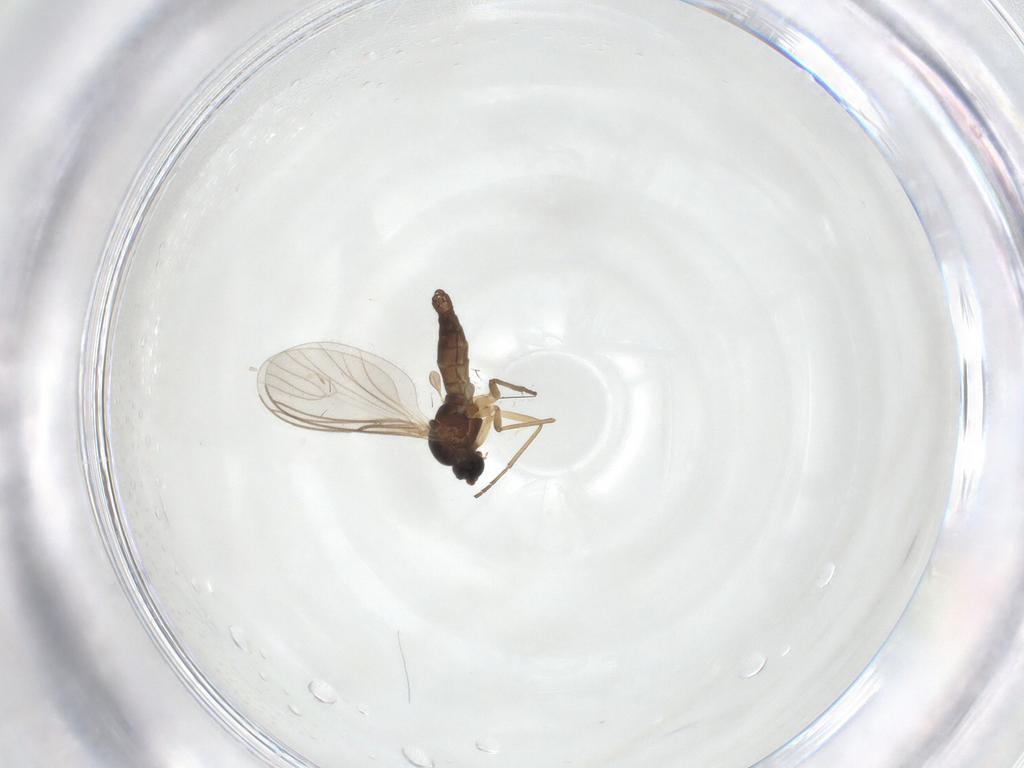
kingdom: Animalia
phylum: Arthropoda
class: Insecta
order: Diptera
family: Sciaridae
